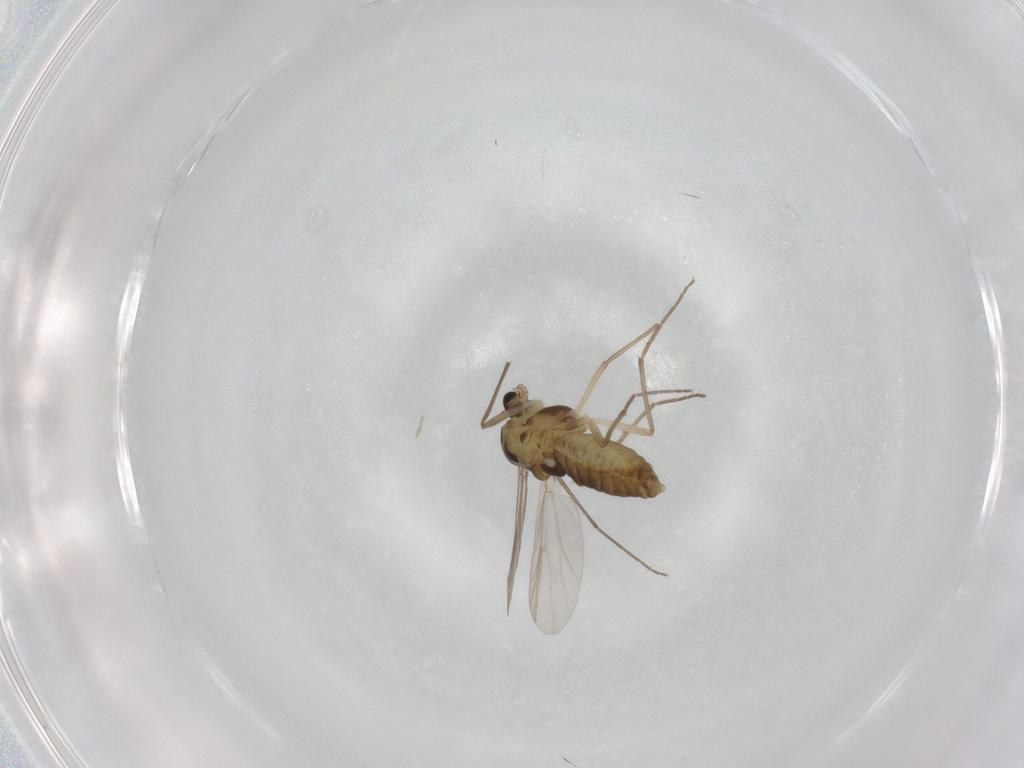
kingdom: Animalia
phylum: Arthropoda
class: Insecta
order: Diptera
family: Chironomidae
